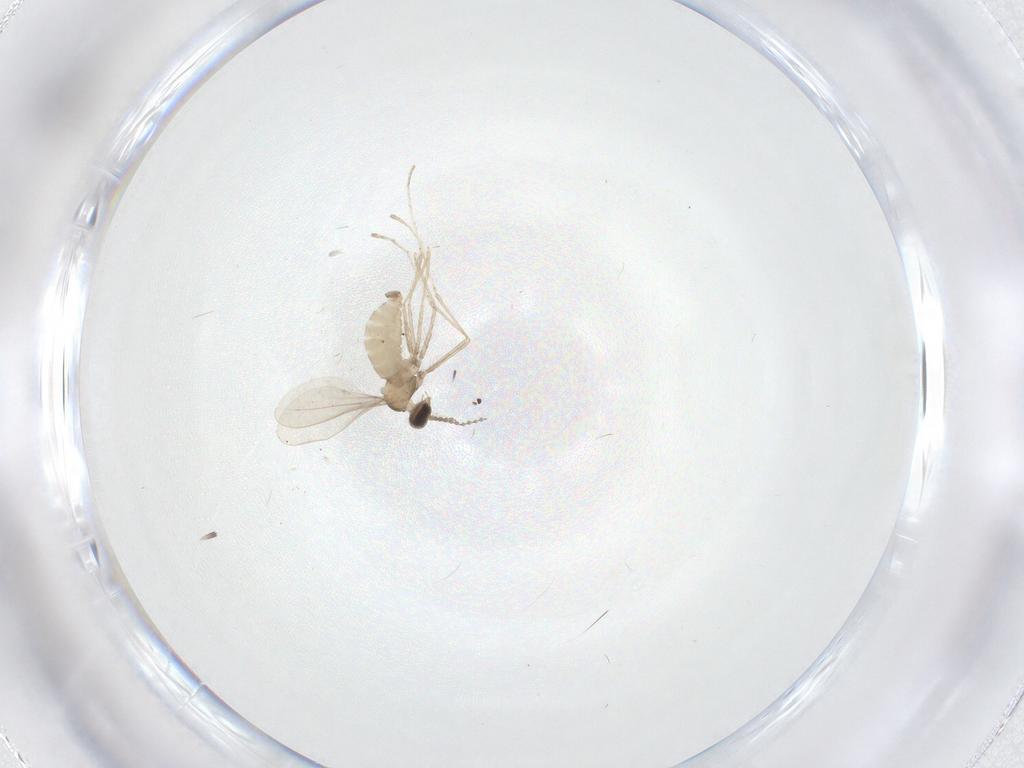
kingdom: Animalia
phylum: Arthropoda
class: Insecta
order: Diptera
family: Cecidomyiidae
